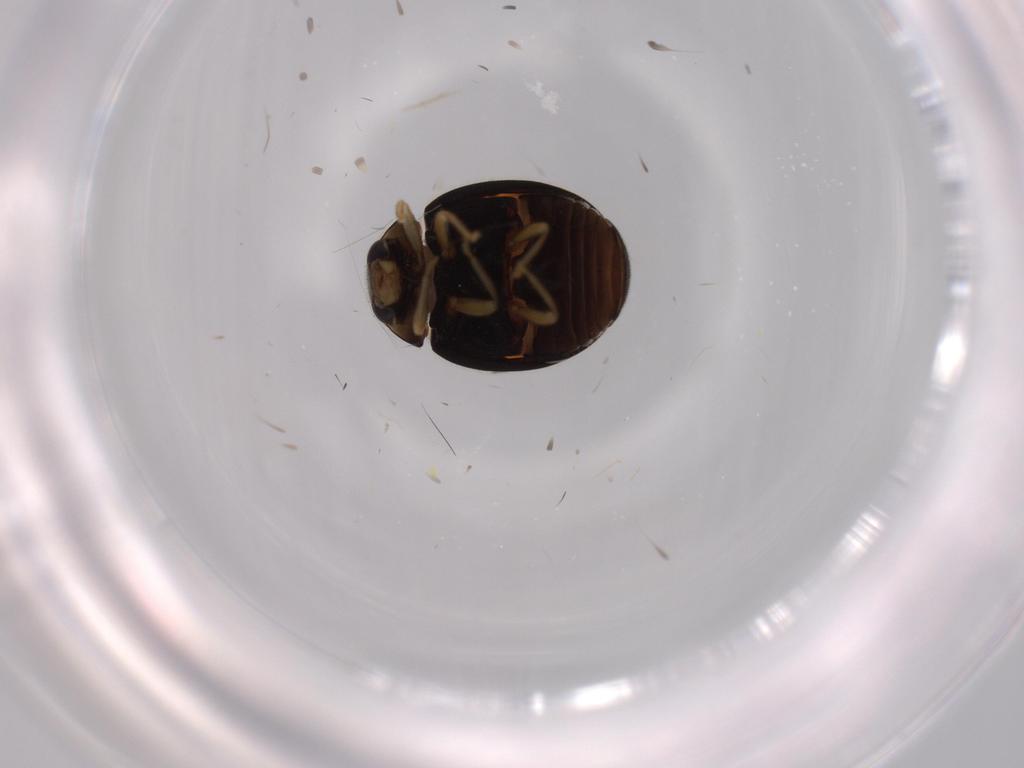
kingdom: Animalia
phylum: Arthropoda
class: Insecta
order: Coleoptera
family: Coccinellidae
